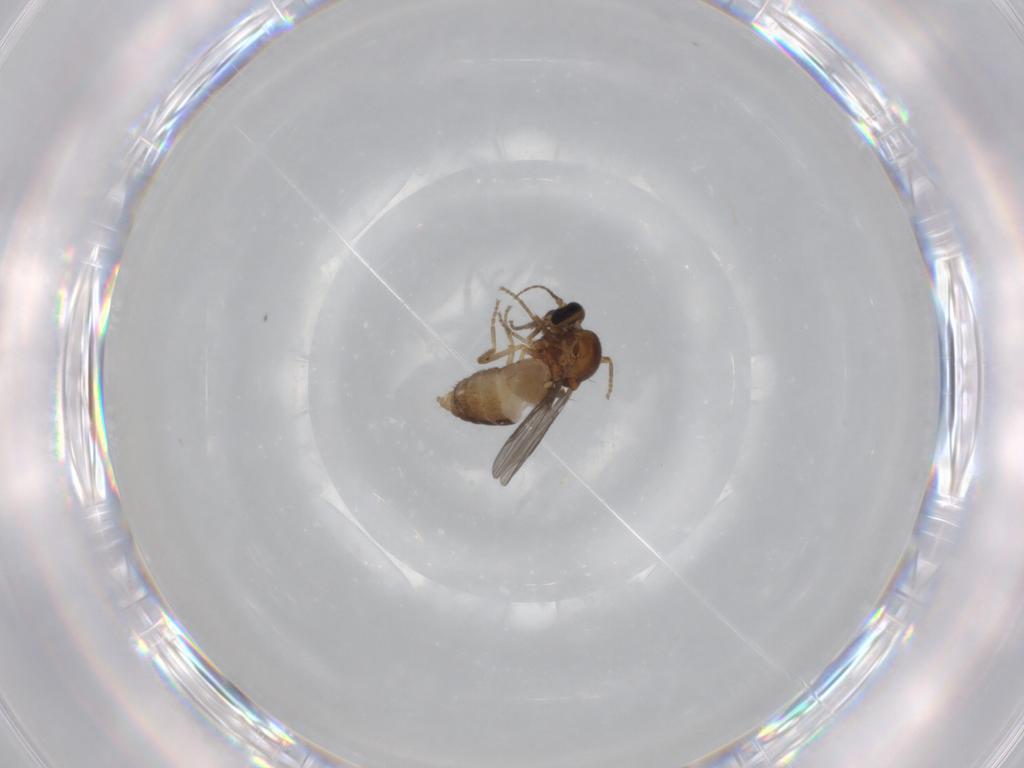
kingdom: Animalia
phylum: Arthropoda
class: Insecta
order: Diptera
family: Ceratopogonidae
